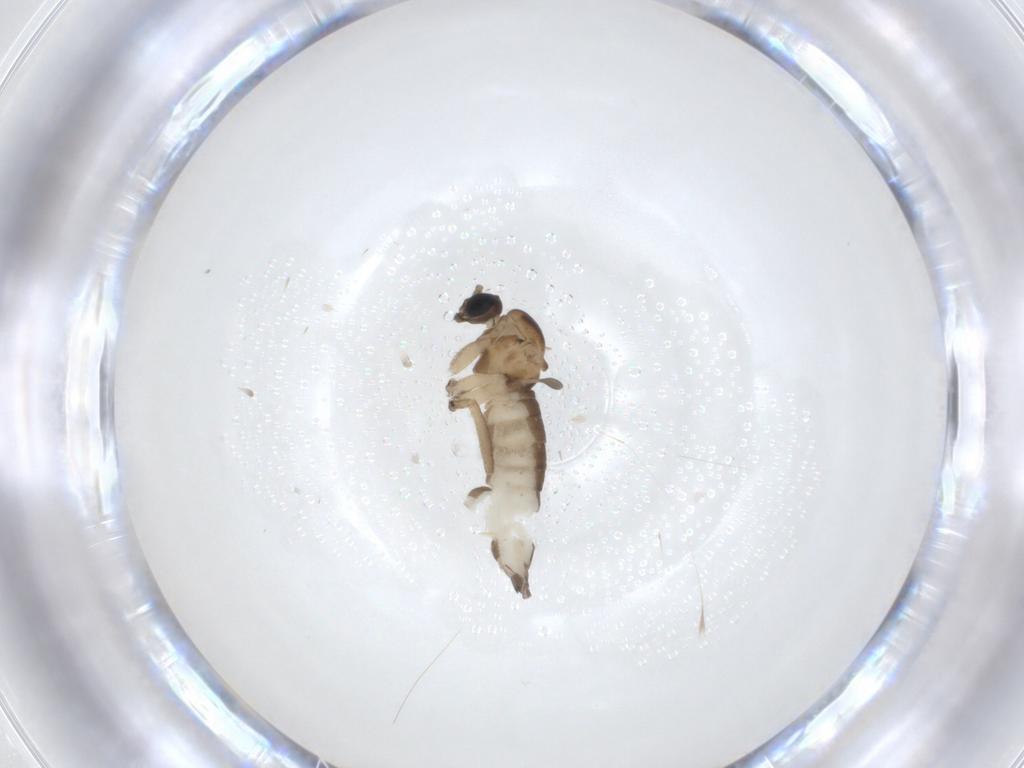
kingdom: Animalia
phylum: Arthropoda
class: Insecta
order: Diptera
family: Sciaridae
